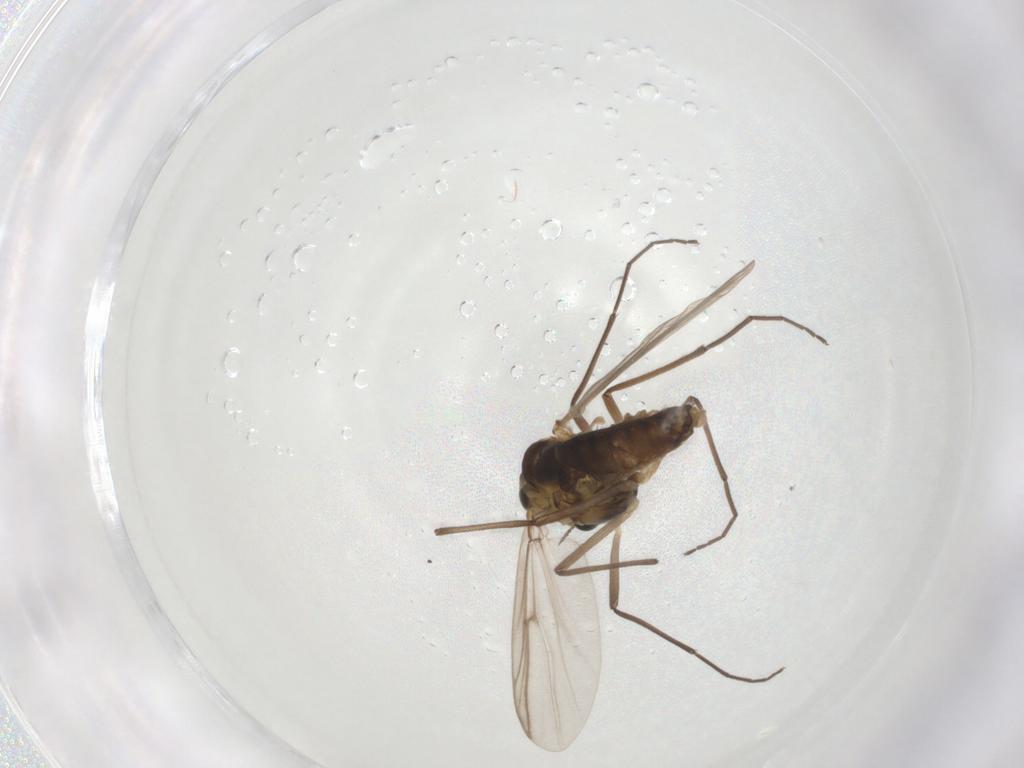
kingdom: Animalia
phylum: Arthropoda
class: Insecta
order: Diptera
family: Chironomidae
